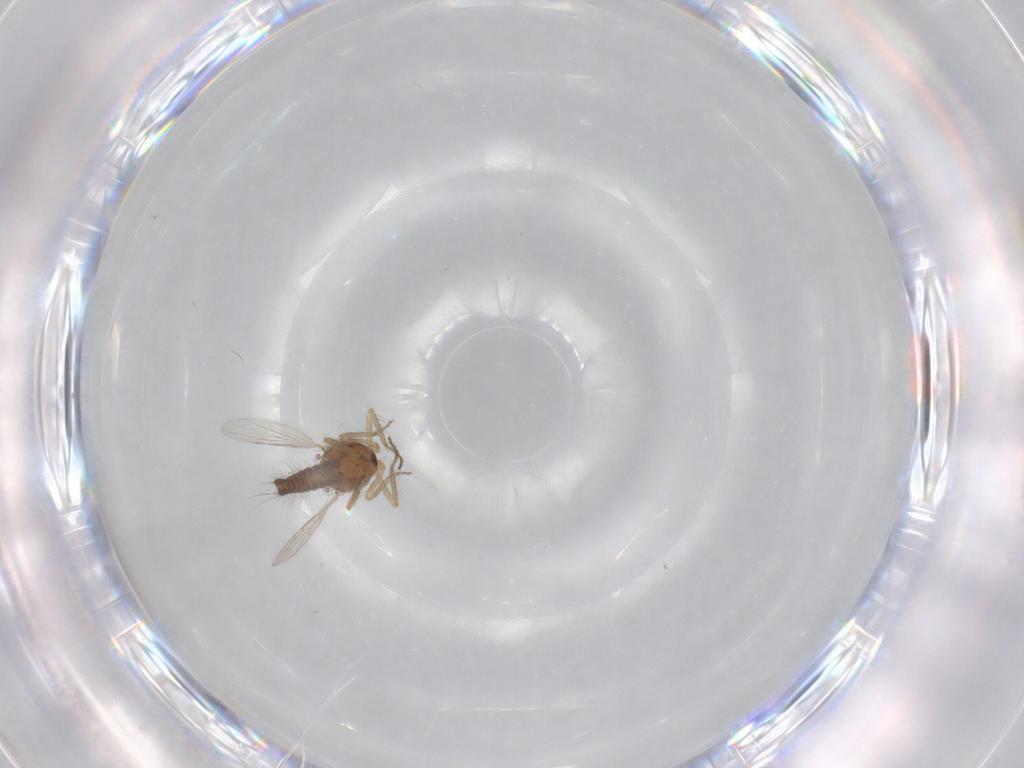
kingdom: Animalia
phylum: Arthropoda
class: Insecta
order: Diptera
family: Ceratopogonidae
